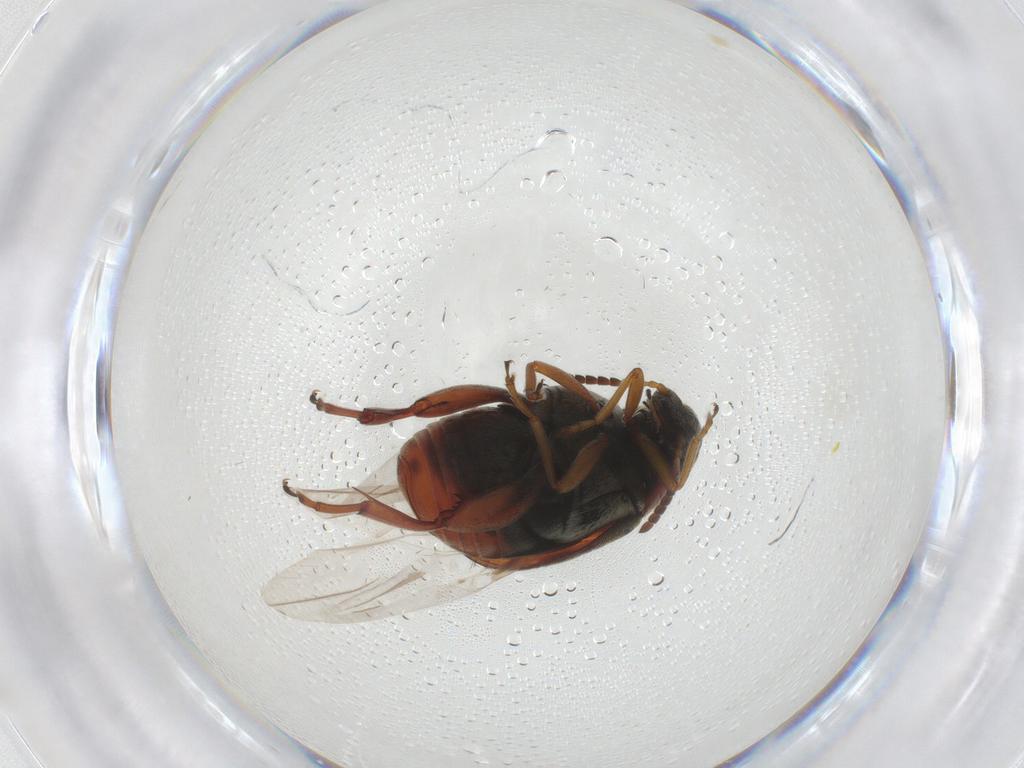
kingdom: Animalia
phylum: Arthropoda
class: Insecta
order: Coleoptera
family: Chrysomelidae
